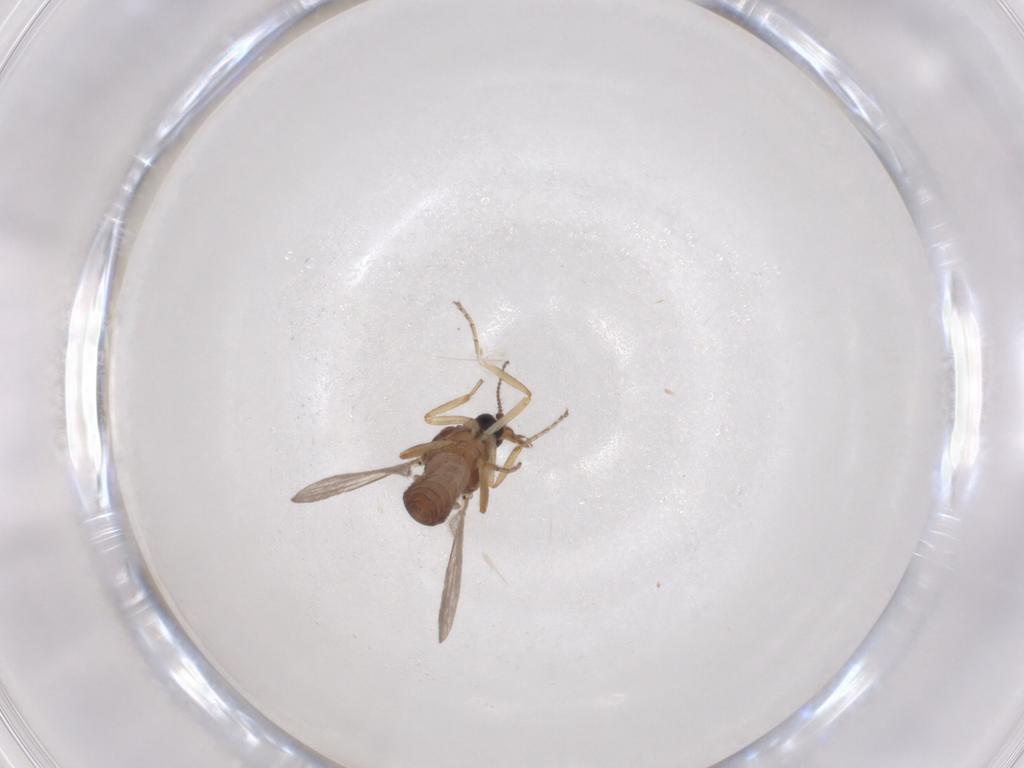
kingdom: Animalia
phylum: Arthropoda
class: Insecta
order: Diptera
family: Ceratopogonidae
